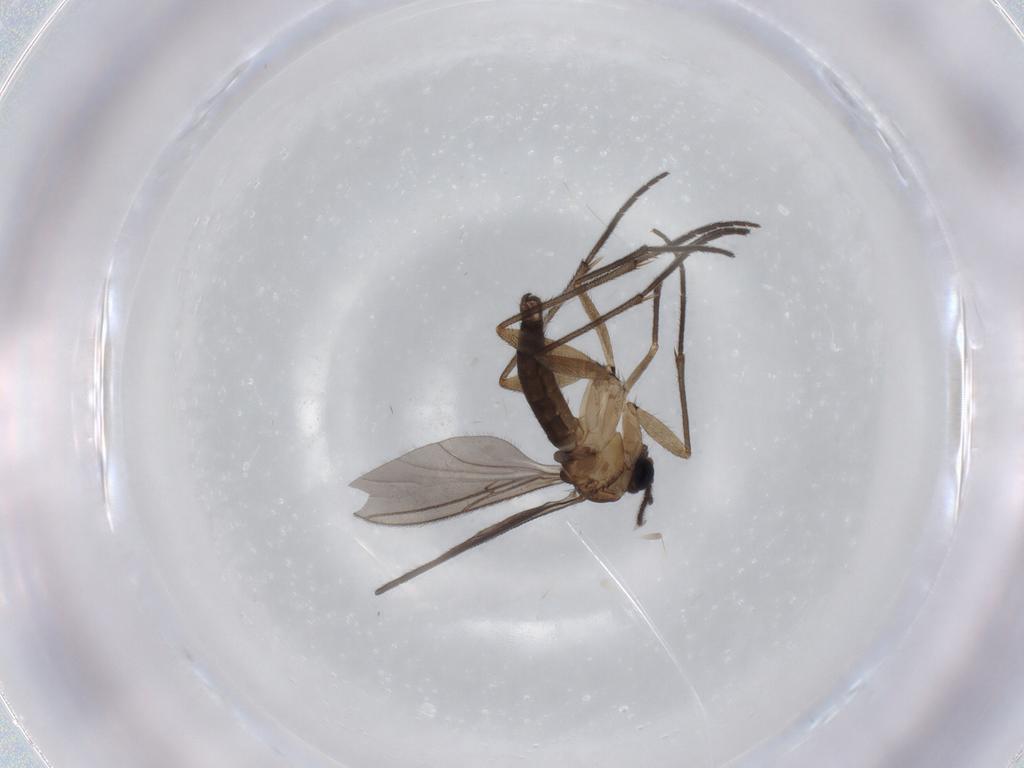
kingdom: Animalia
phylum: Arthropoda
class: Insecta
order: Diptera
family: Sciaridae
